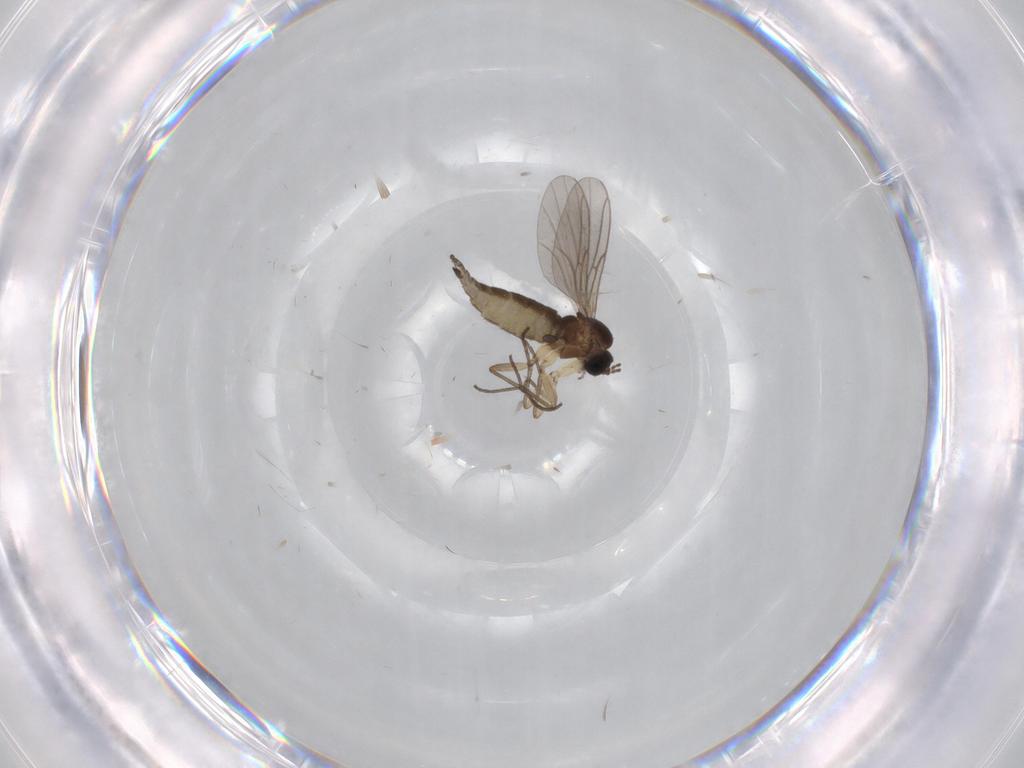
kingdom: Animalia
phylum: Arthropoda
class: Insecta
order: Diptera
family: Sciaridae
